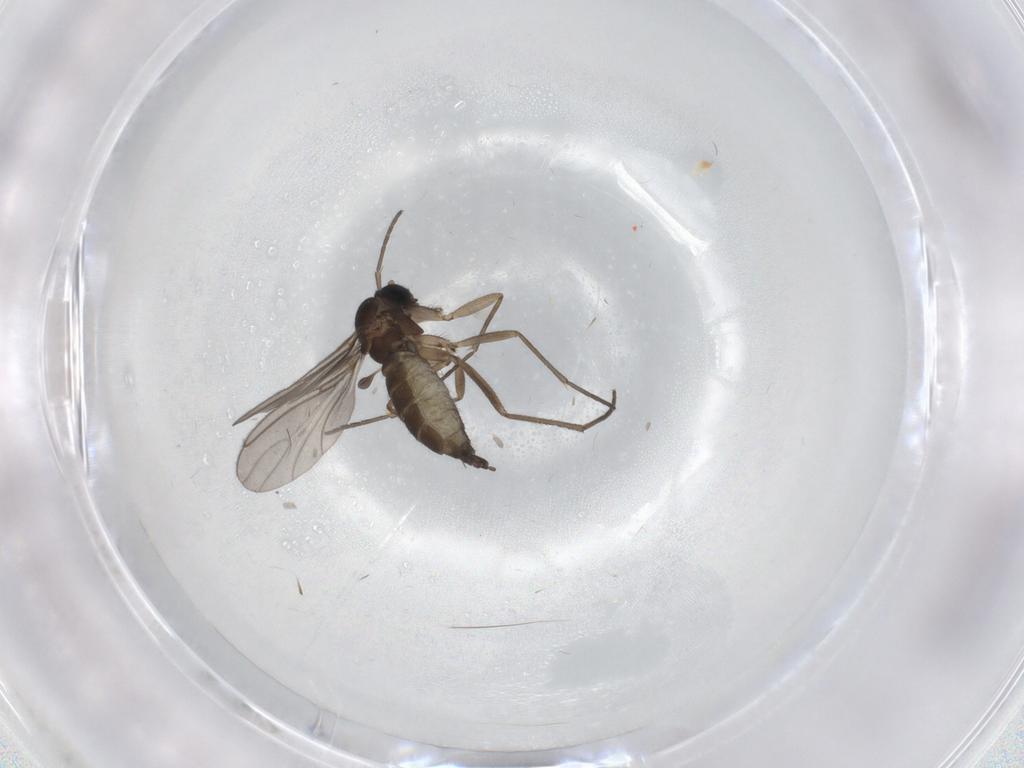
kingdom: Animalia
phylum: Arthropoda
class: Insecta
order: Diptera
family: Sciaridae
